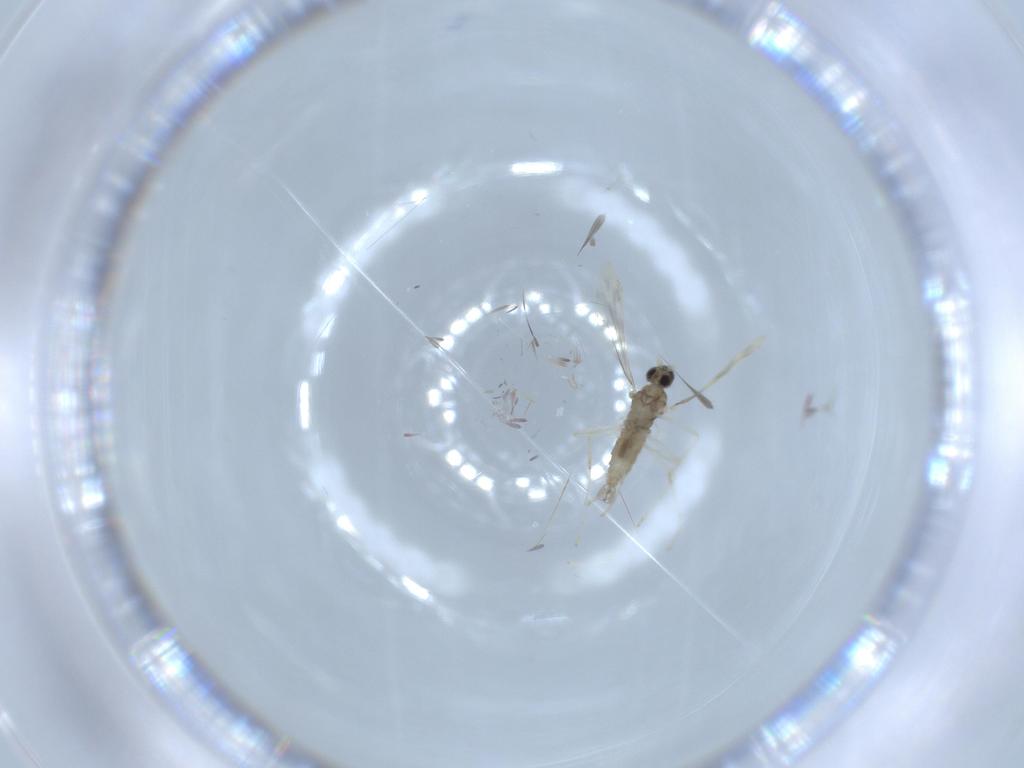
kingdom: Animalia
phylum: Arthropoda
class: Insecta
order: Diptera
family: Cecidomyiidae
